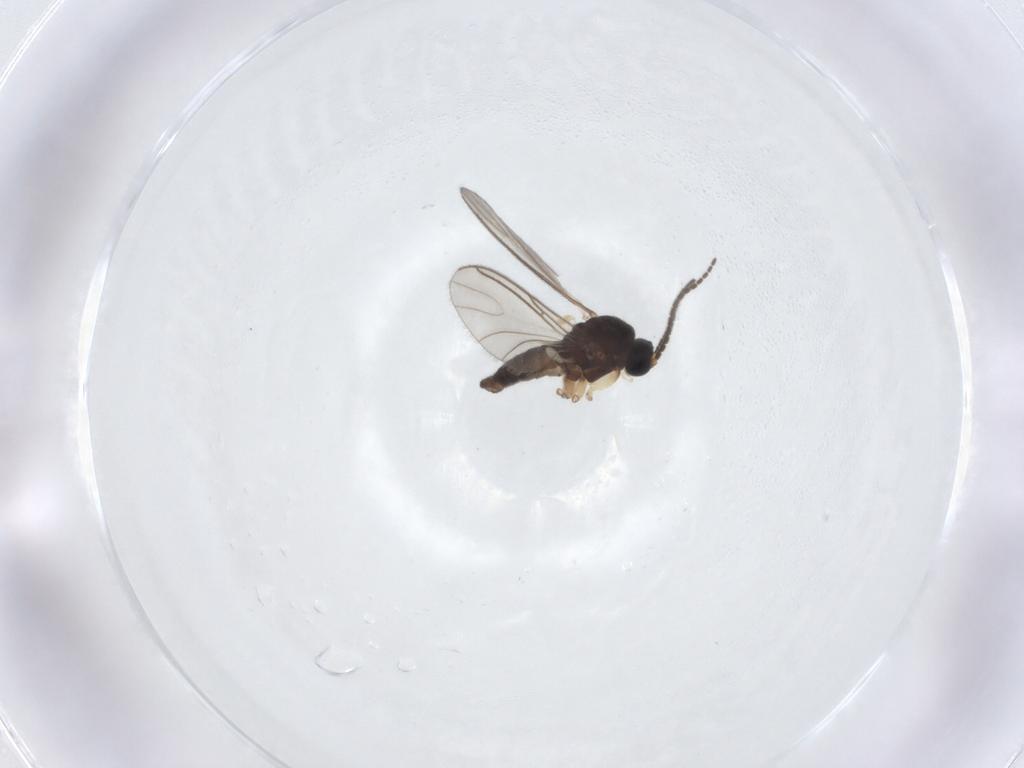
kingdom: Animalia
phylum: Arthropoda
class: Insecta
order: Diptera
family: Sciaridae
